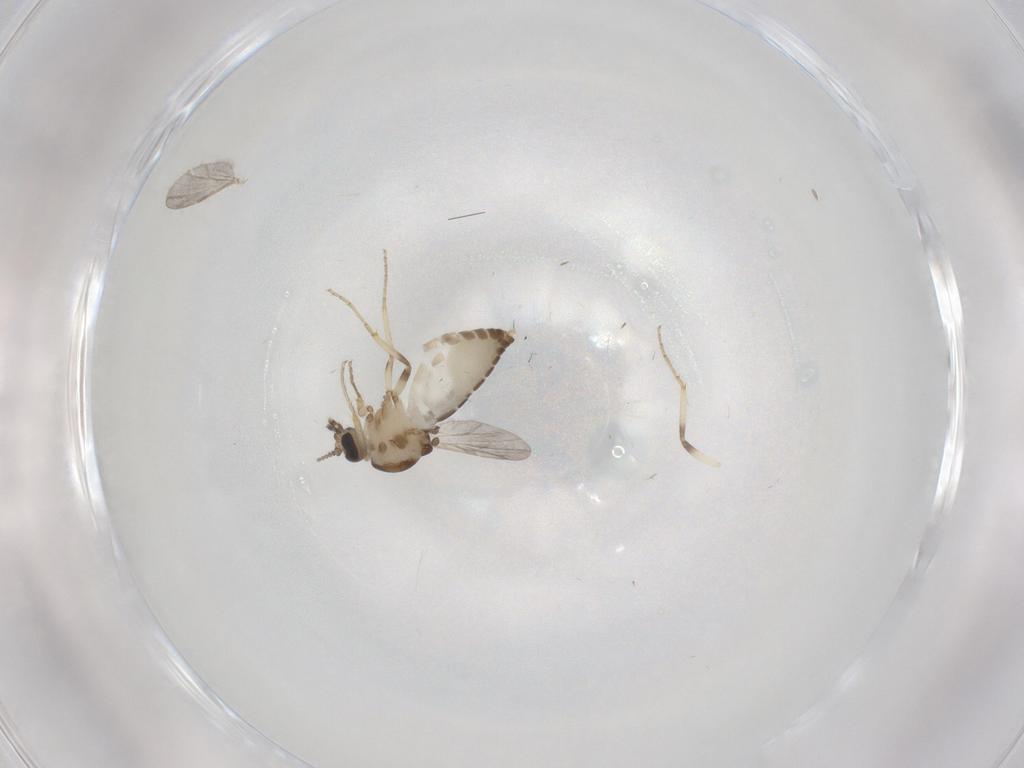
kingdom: Animalia
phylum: Arthropoda
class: Insecta
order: Diptera
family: Ceratopogonidae
